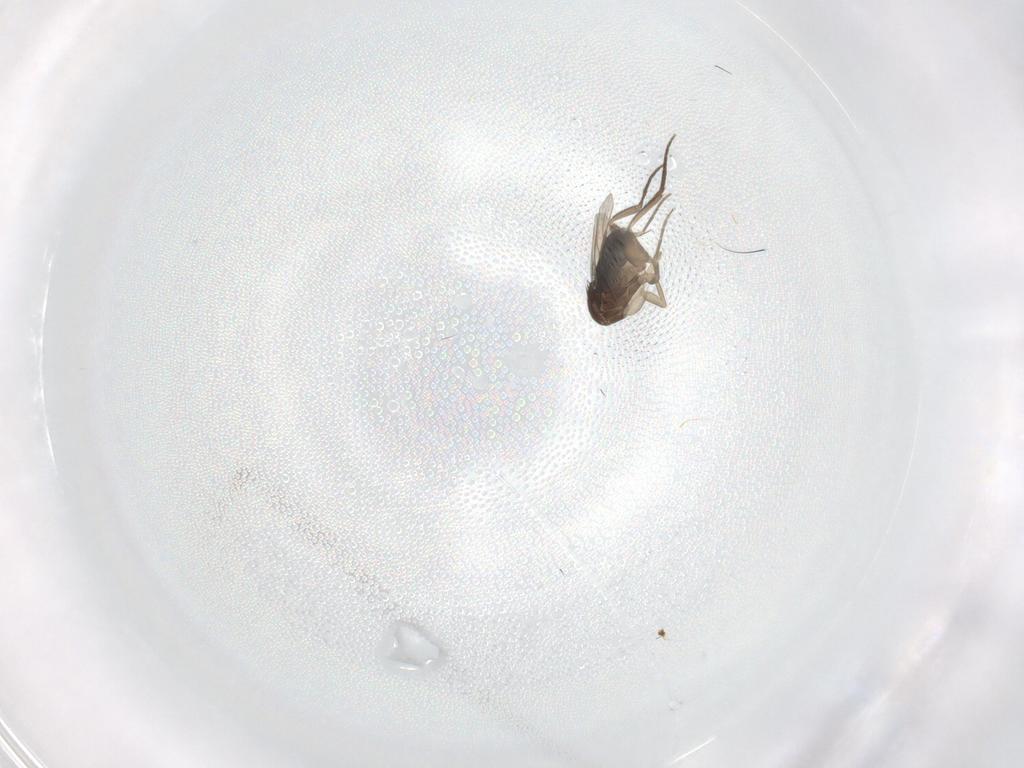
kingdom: Animalia
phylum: Arthropoda
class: Insecta
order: Diptera
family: Phoridae
